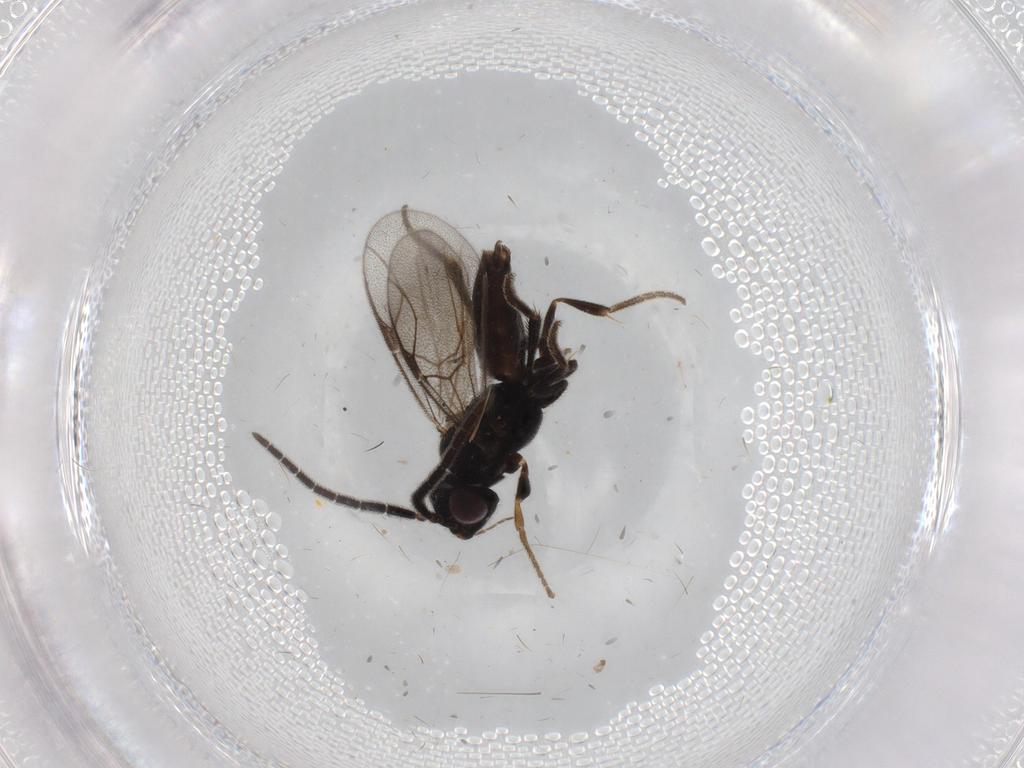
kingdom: Animalia
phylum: Arthropoda
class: Insecta
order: Hymenoptera
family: Dryinidae
